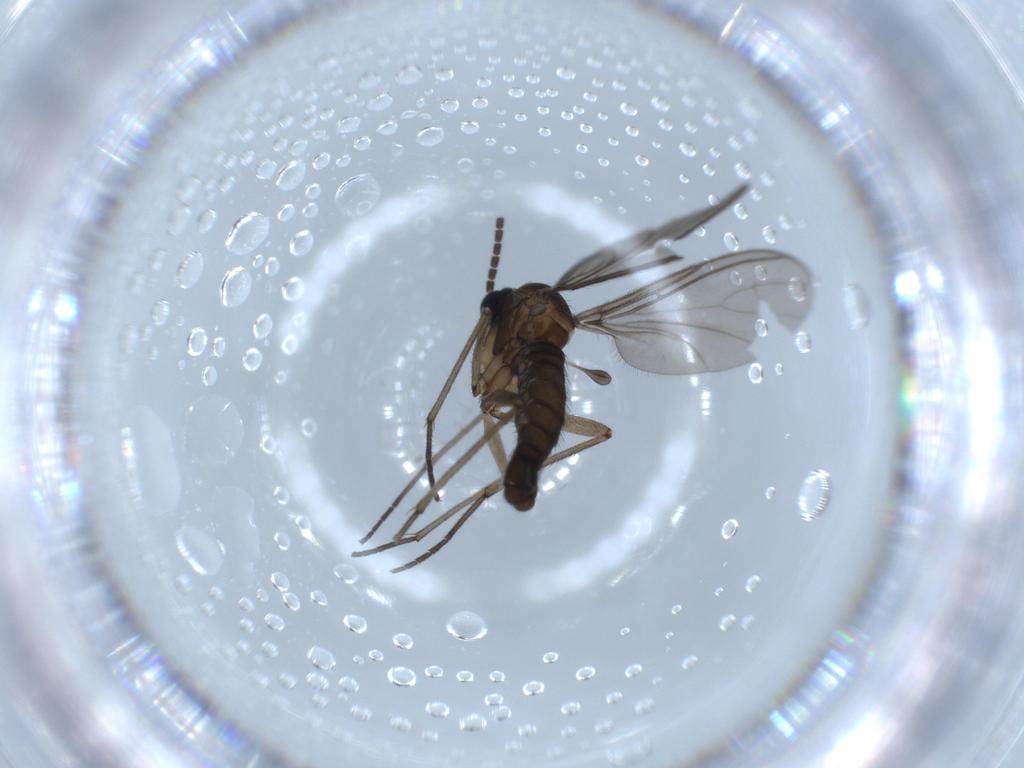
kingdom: Animalia
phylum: Arthropoda
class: Insecta
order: Diptera
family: Sciaridae
